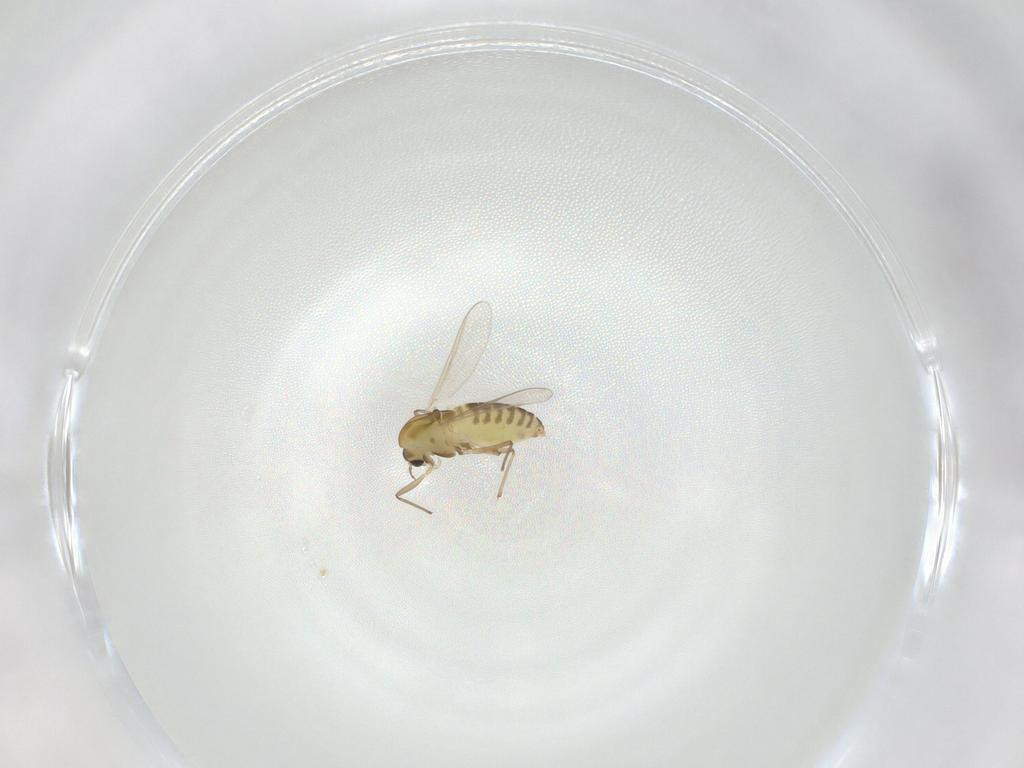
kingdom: Animalia
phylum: Arthropoda
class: Insecta
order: Diptera
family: Chironomidae
